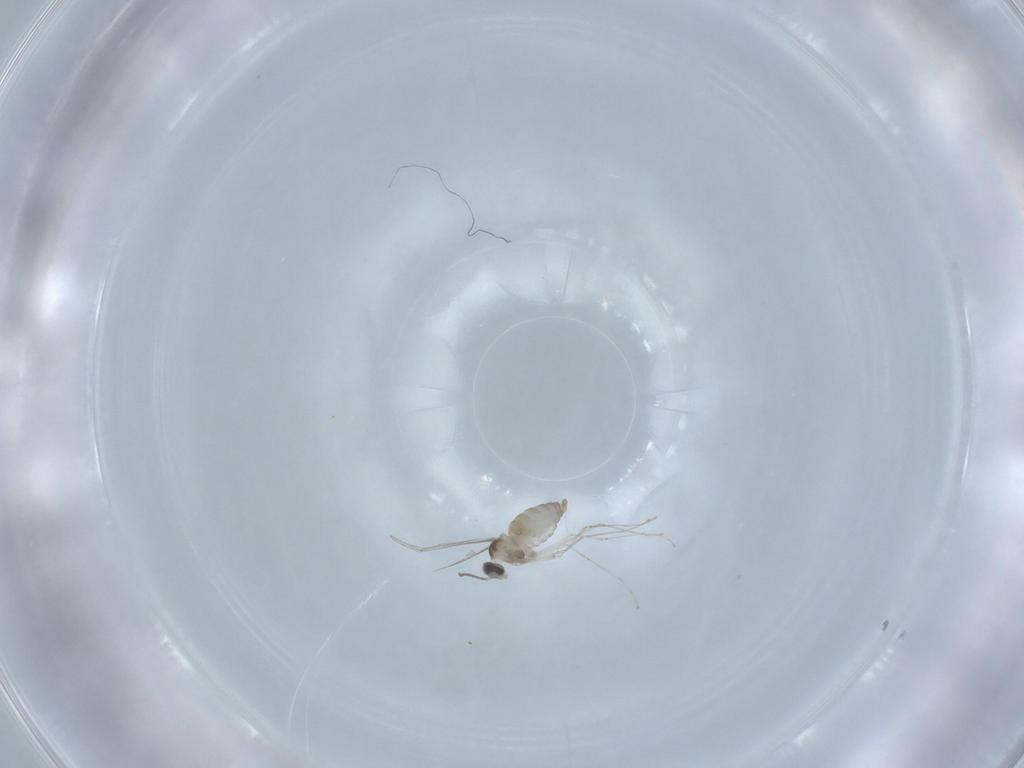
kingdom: Animalia
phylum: Arthropoda
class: Insecta
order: Diptera
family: Cecidomyiidae
